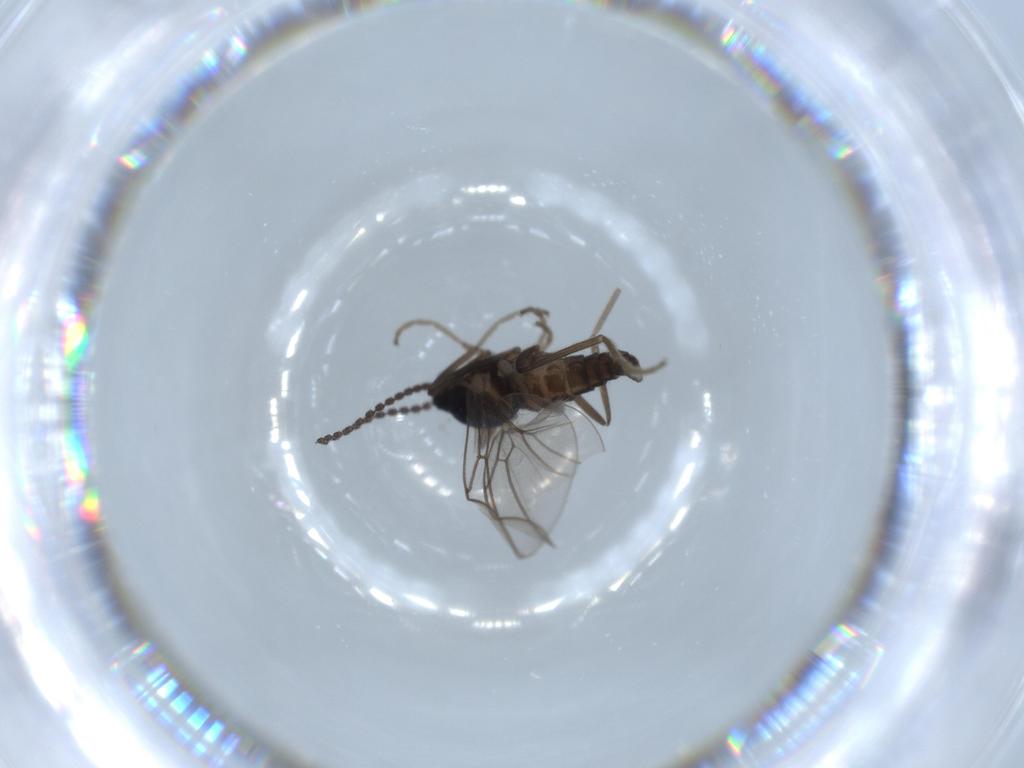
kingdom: Animalia
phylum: Arthropoda
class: Insecta
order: Diptera
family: Cecidomyiidae
